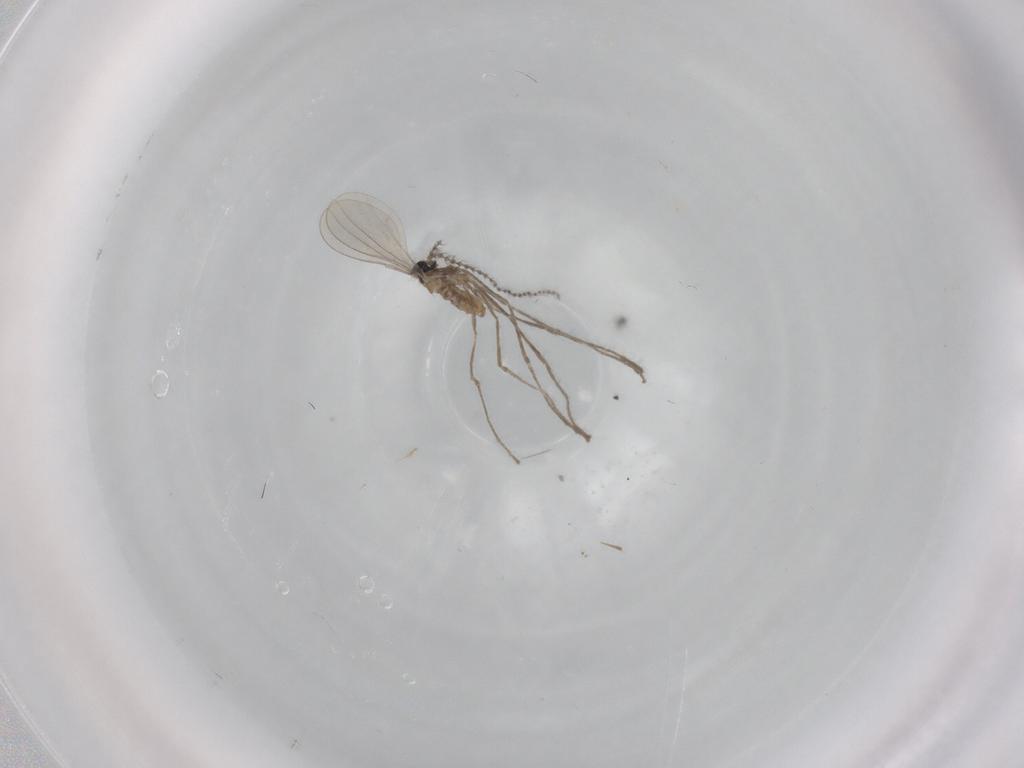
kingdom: Animalia
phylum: Arthropoda
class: Insecta
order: Diptera
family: Cecidomyiidae
